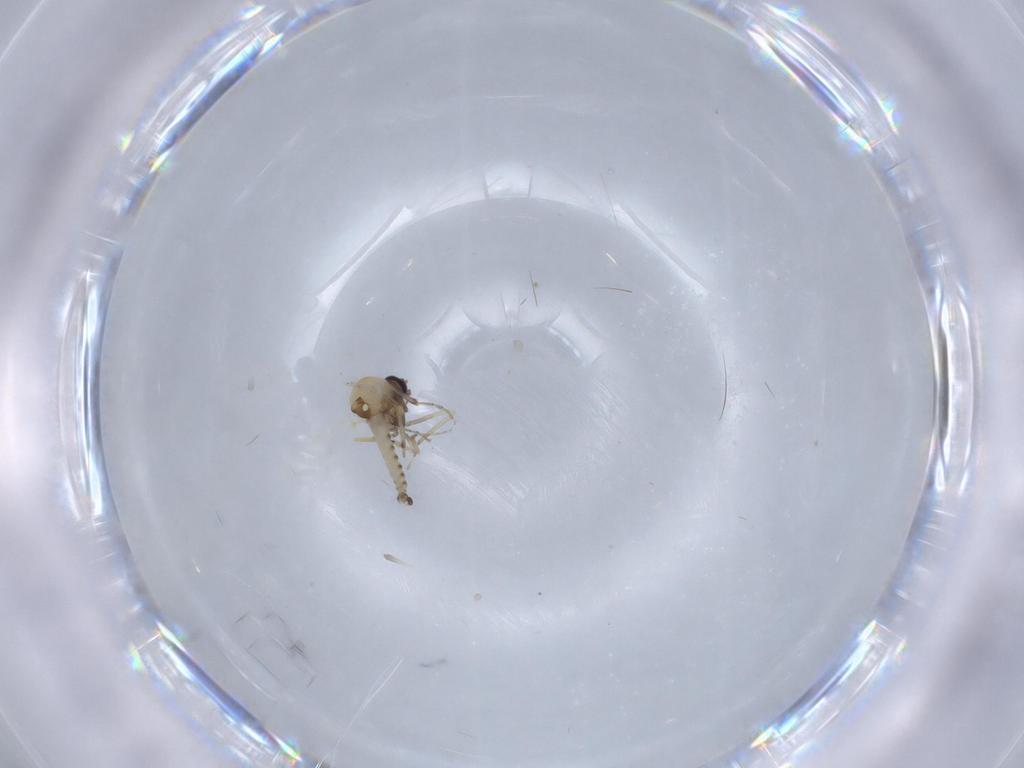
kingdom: Animalia
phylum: Arthropoda
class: Insecta
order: Diptera
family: Ceratopogonidae
